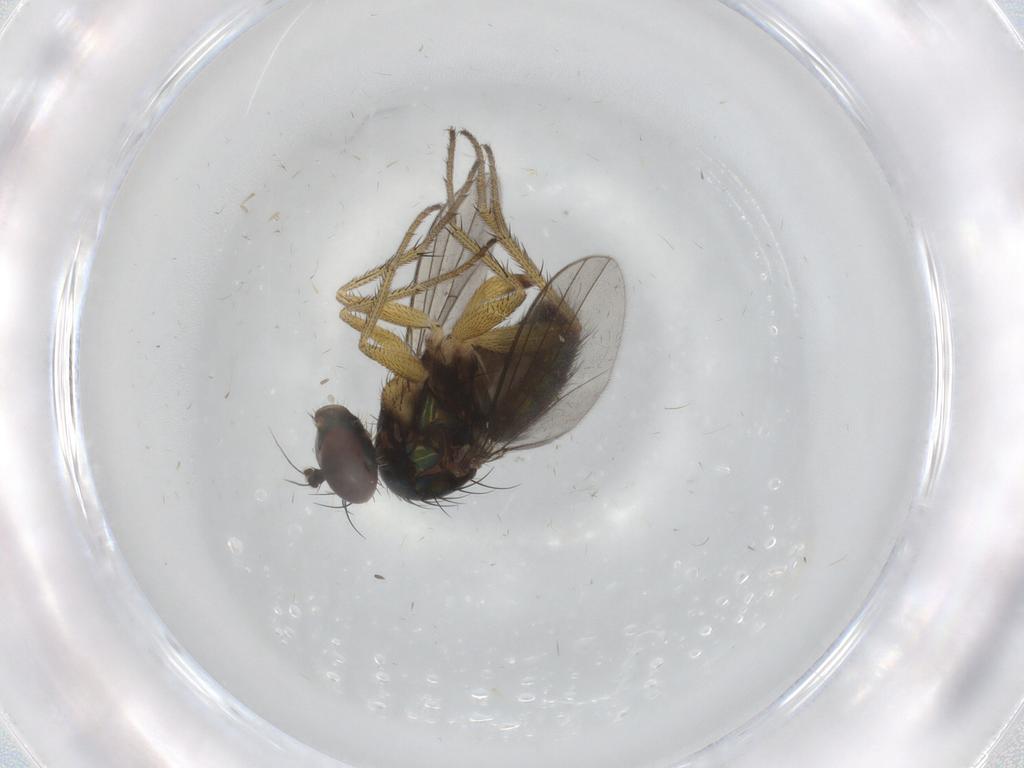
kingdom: Animalia
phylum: Arthropoda
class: Insecta
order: Diptera
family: Dolichopodidae
